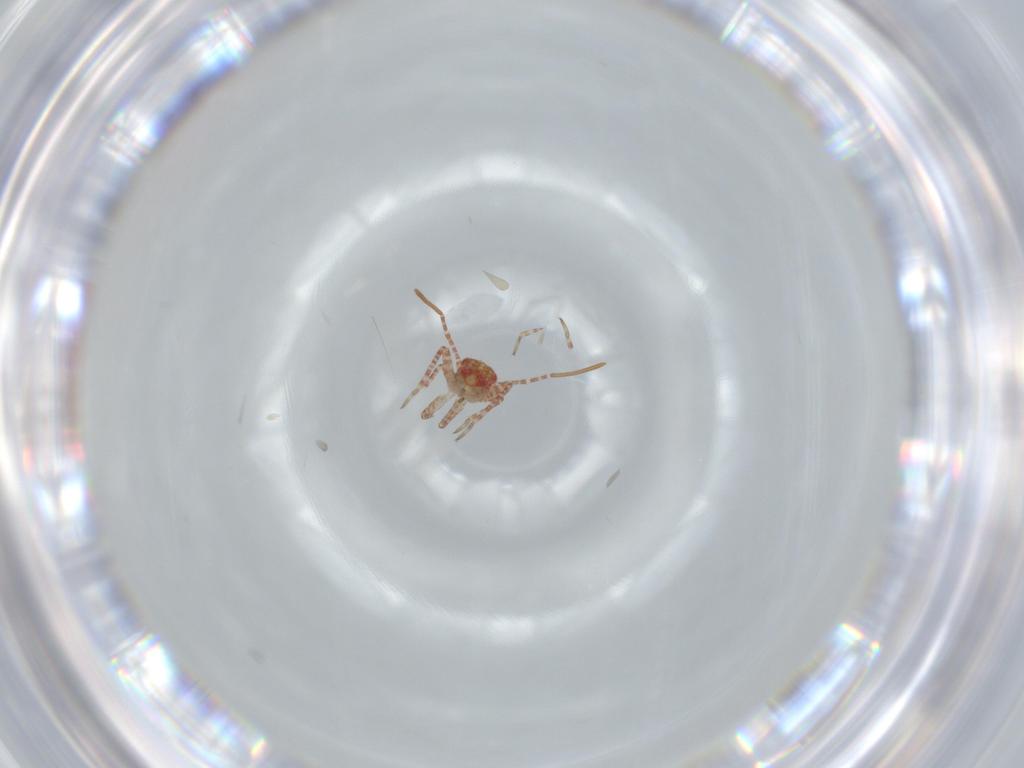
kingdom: Animalia
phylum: Arthropoda
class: Insecta
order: Hemiptera
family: Miridae
